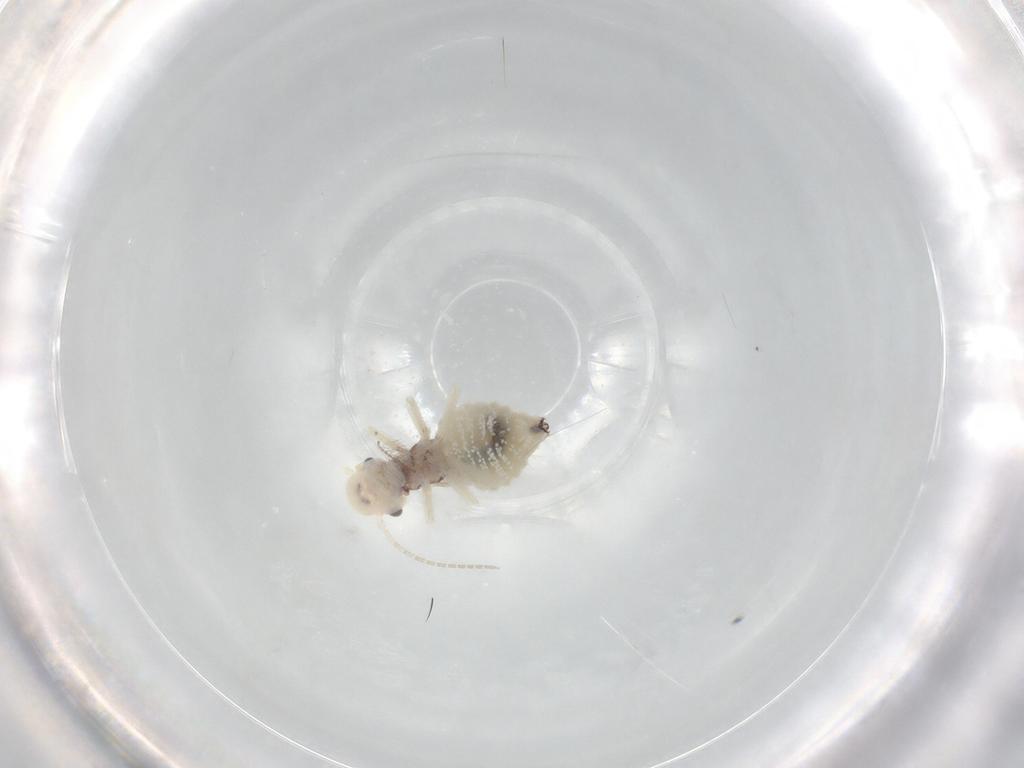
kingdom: Animalia
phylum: Arthropoda
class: Insecta
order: Psocodea
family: Amphipsocidae
